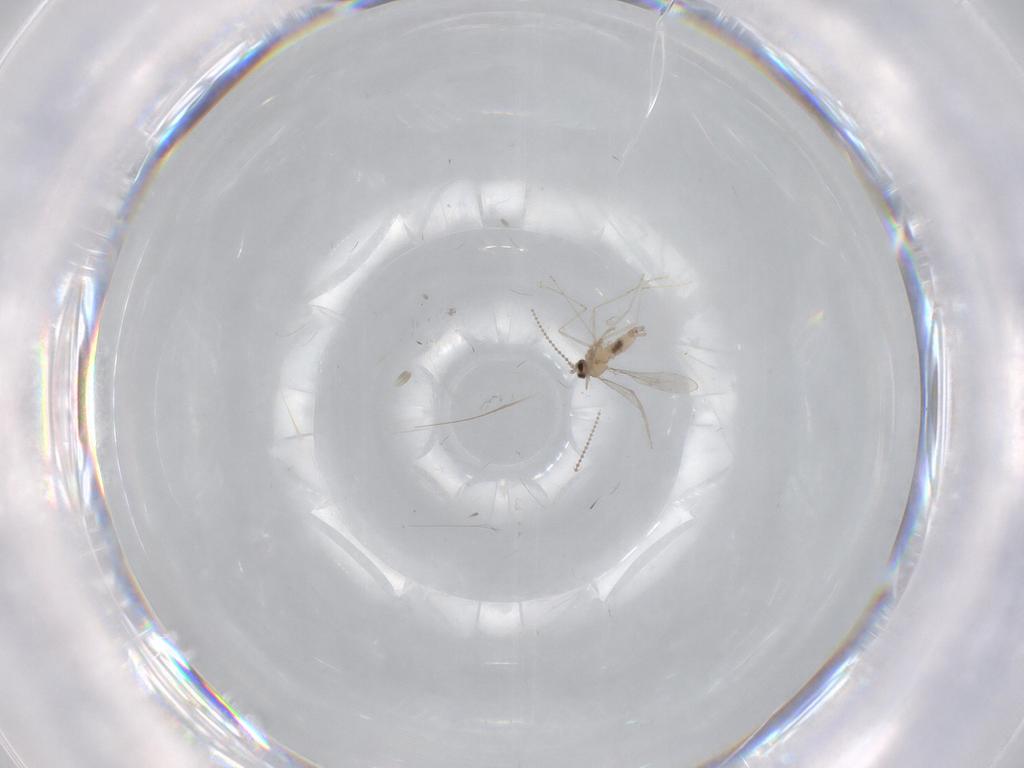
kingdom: Animalia
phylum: Arthropoda
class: Insecta
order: Diptera
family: Cecidomyiidae
